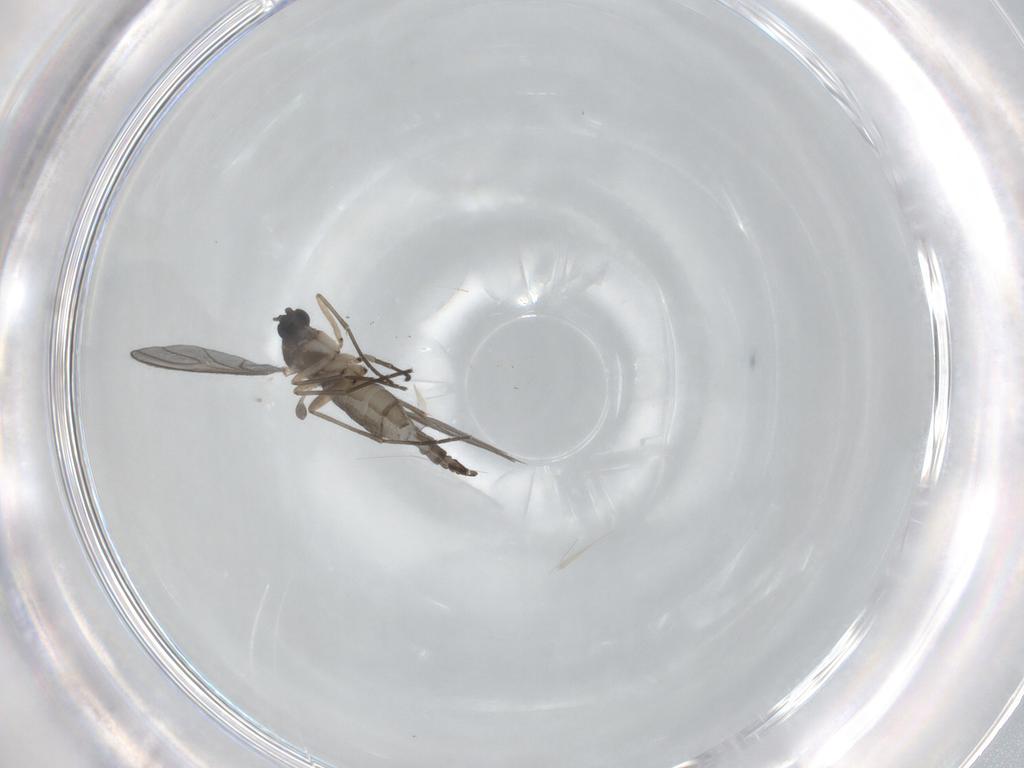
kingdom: Animalia
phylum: Arthropoda
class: Insecta
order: Diptera
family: Sciaridae
